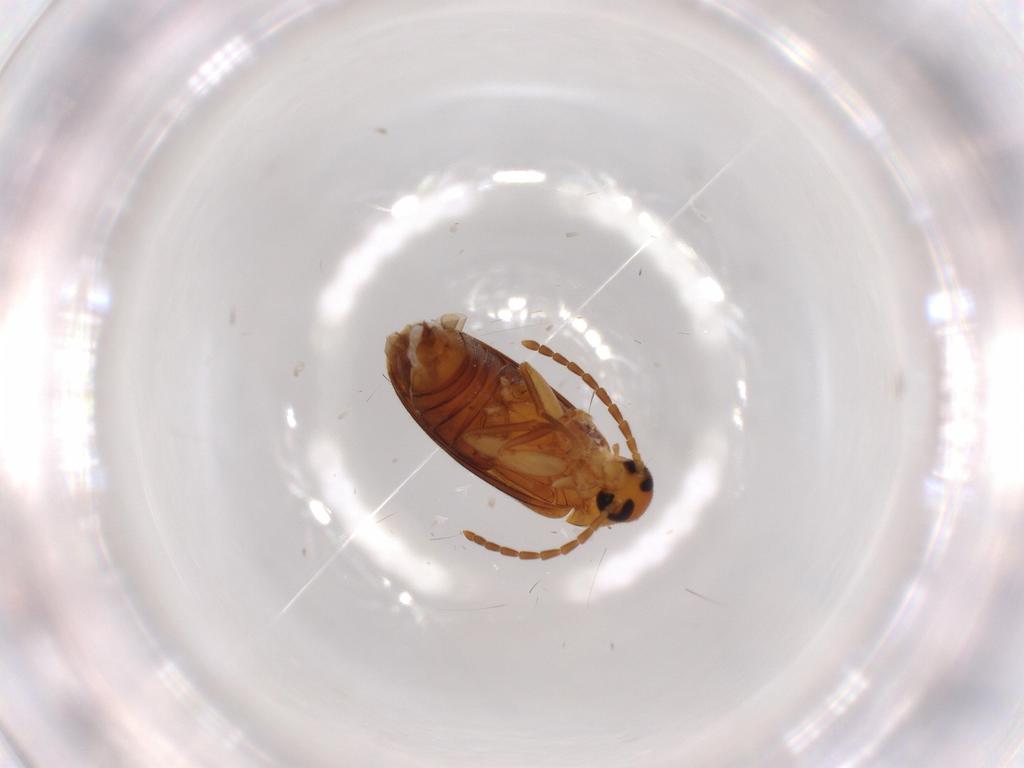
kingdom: Animalia
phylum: Arthropoda
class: Insecta
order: Coleoptera
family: Scraptiidae
